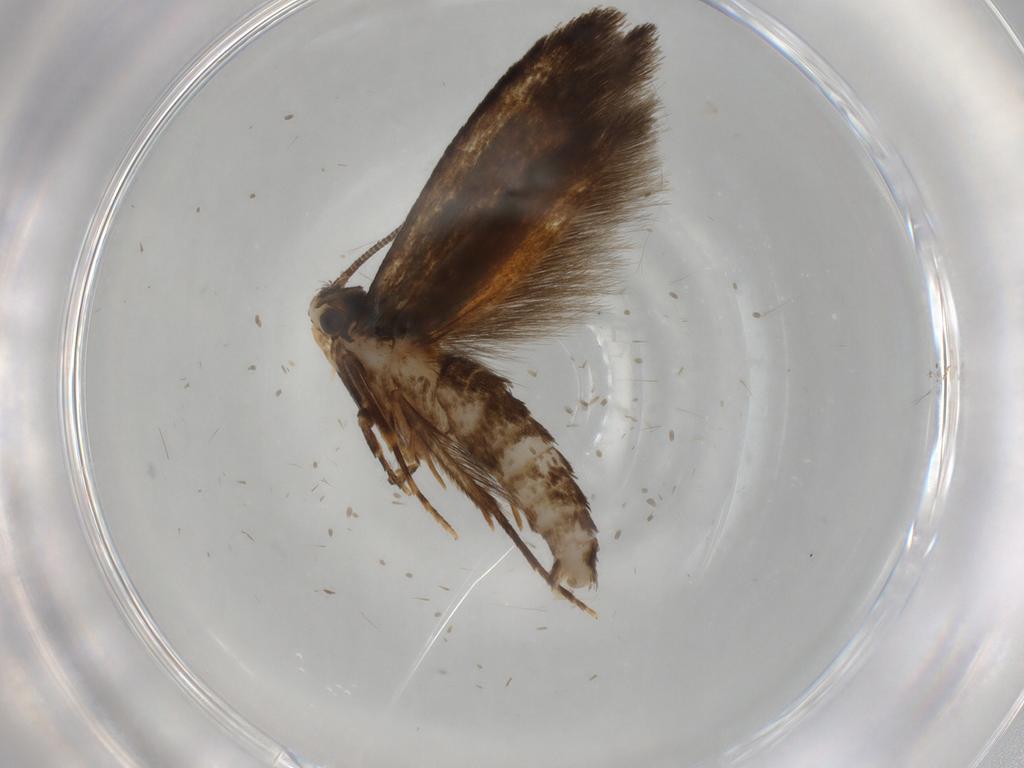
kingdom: Animalia
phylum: Arthropoda
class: Insecta
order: Lepidoptera
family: Tineidae
